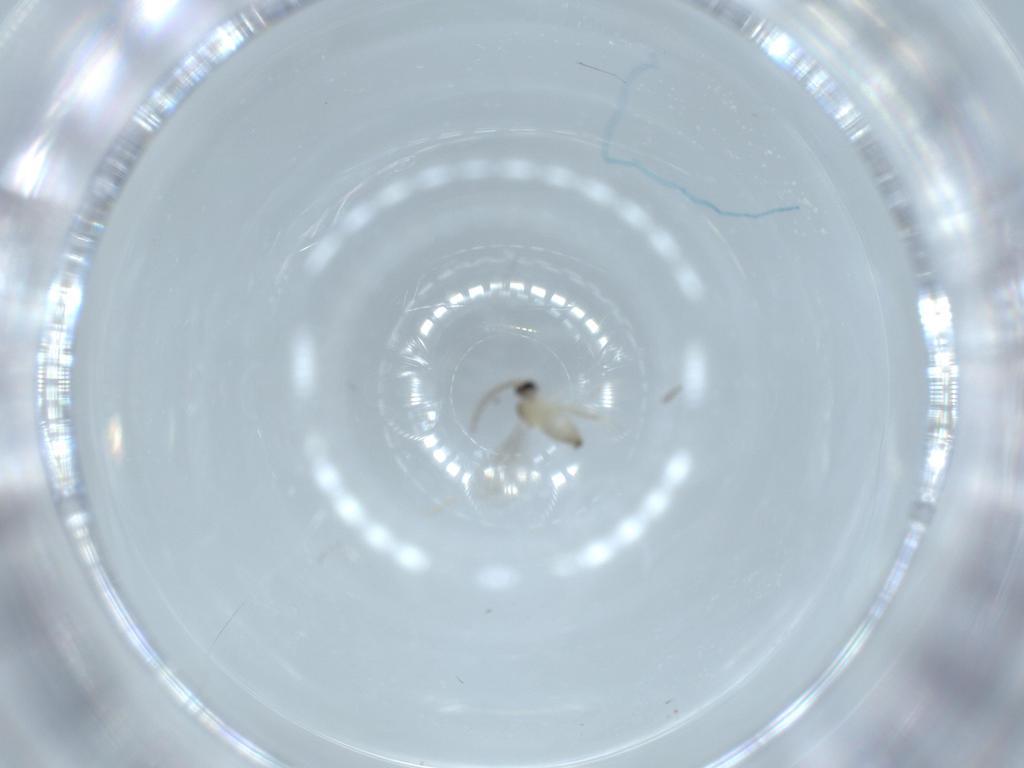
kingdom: Animalia
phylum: Arthropoda
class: Insecta
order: Diptera
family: Cecidomyiidae
